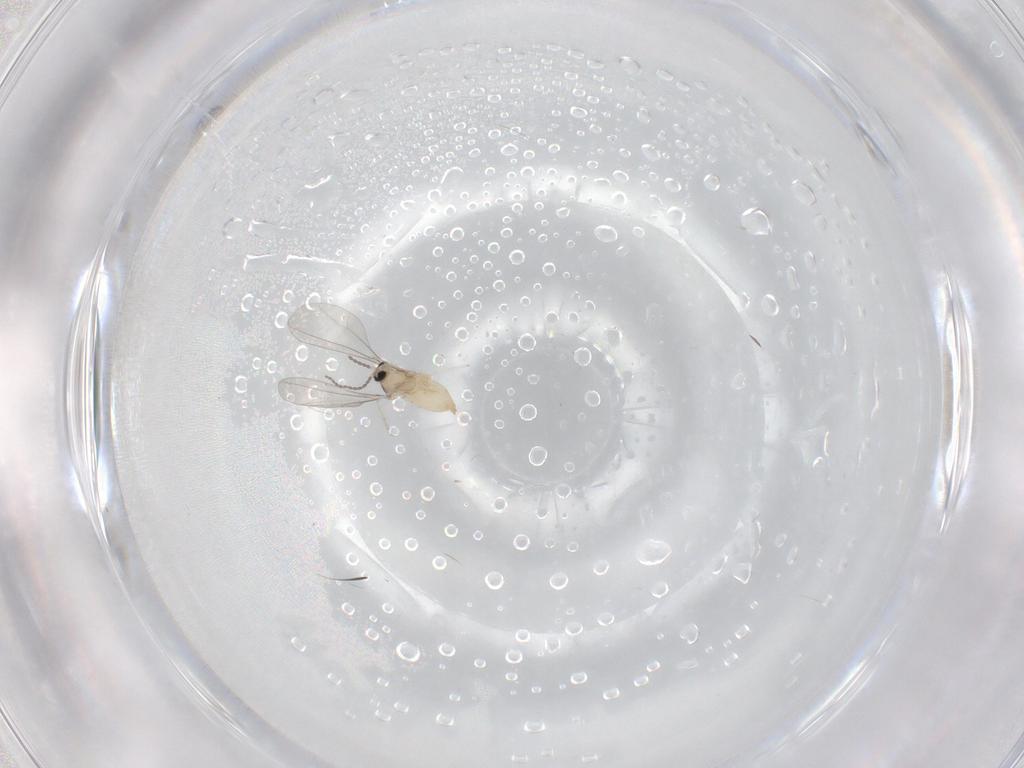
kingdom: Animalia
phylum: Arthropoda
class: Insecta
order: Diptera
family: Cecidomyiidae
